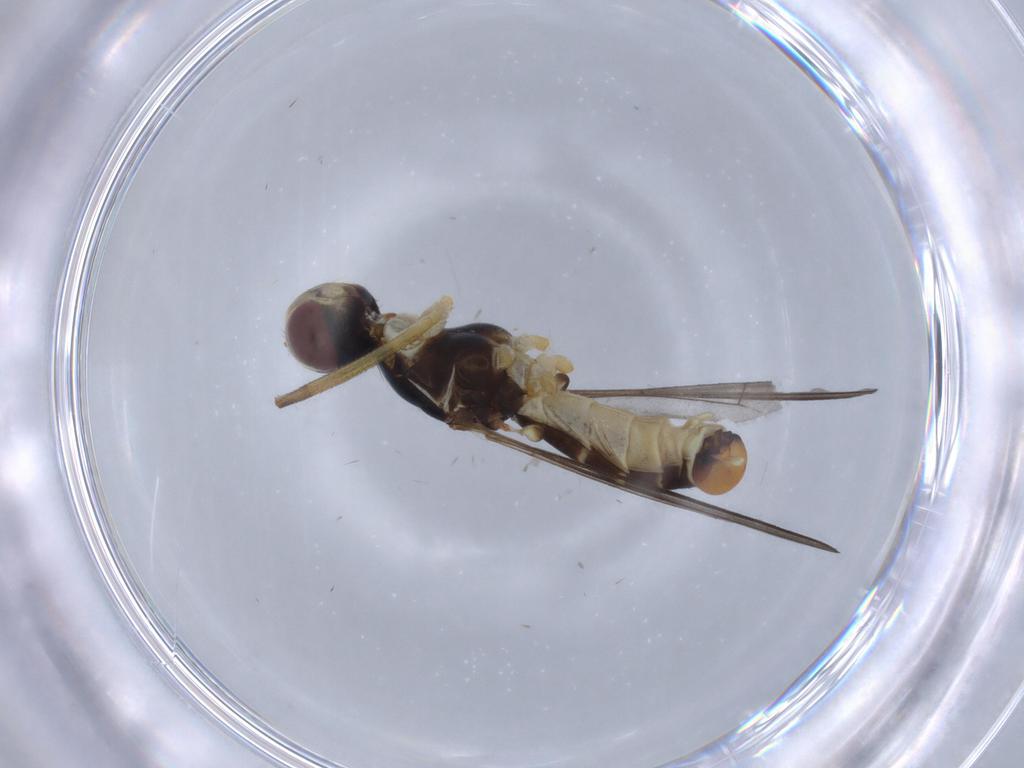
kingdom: Animalia
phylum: Arthropoda
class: Insecta
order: Diptera
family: Micropezidae
